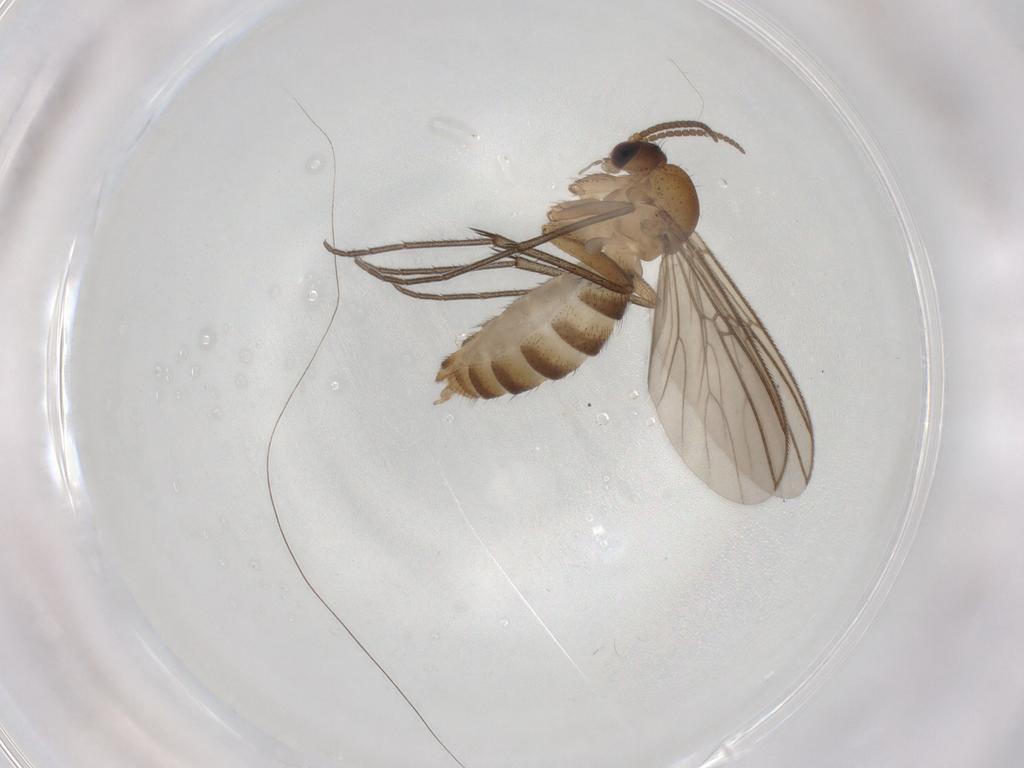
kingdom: Animalia
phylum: Arthropoda
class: Insecta
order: Diptera
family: Mycetophilidae
